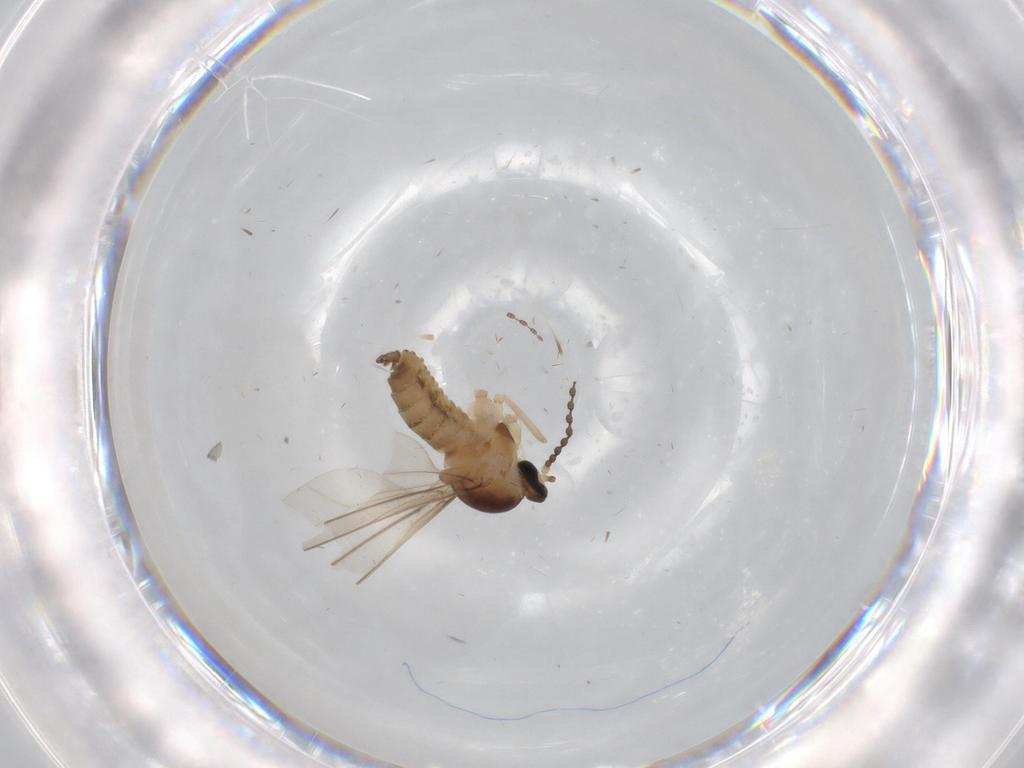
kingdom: Animalia
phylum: Arthropoda
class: Insecta
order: Diptera
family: Cecidomyiidae
